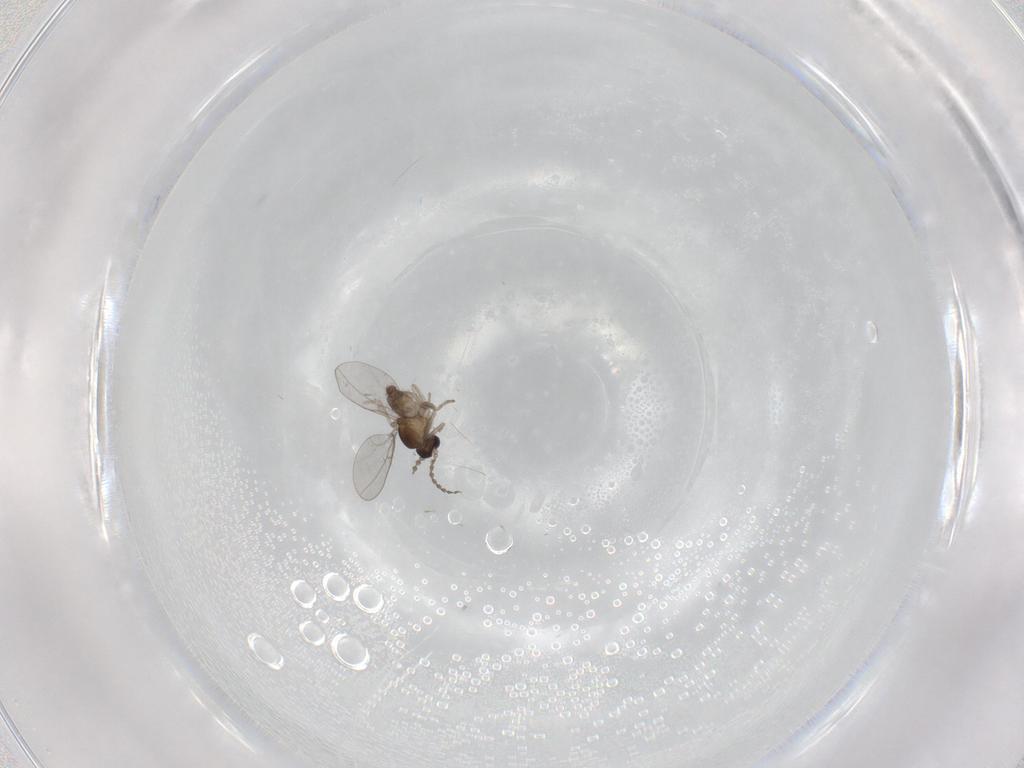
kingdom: Animalia
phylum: Arthropoda
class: Insecta
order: Diptera
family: Cecidomyiidae
